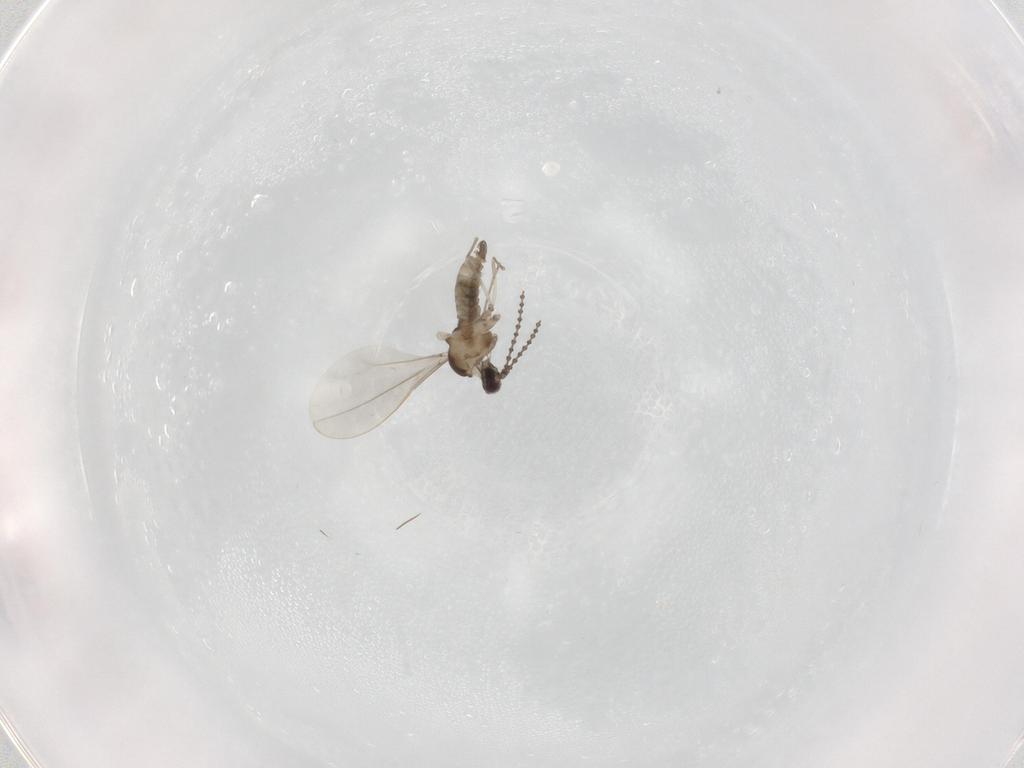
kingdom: Animalia
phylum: Arthropoda
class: Insecta
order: Diptera
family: Cecidomyiidae
